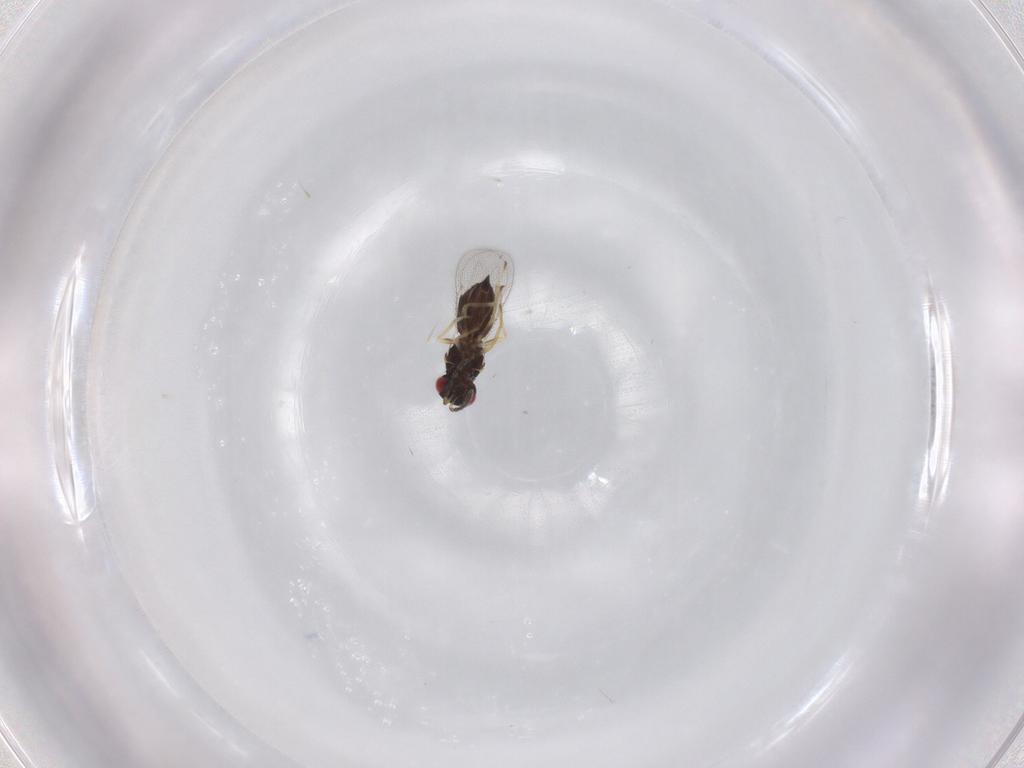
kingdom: Animalia
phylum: Arthropoda
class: Insecta
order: Hymenoptera
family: Eulophidae
